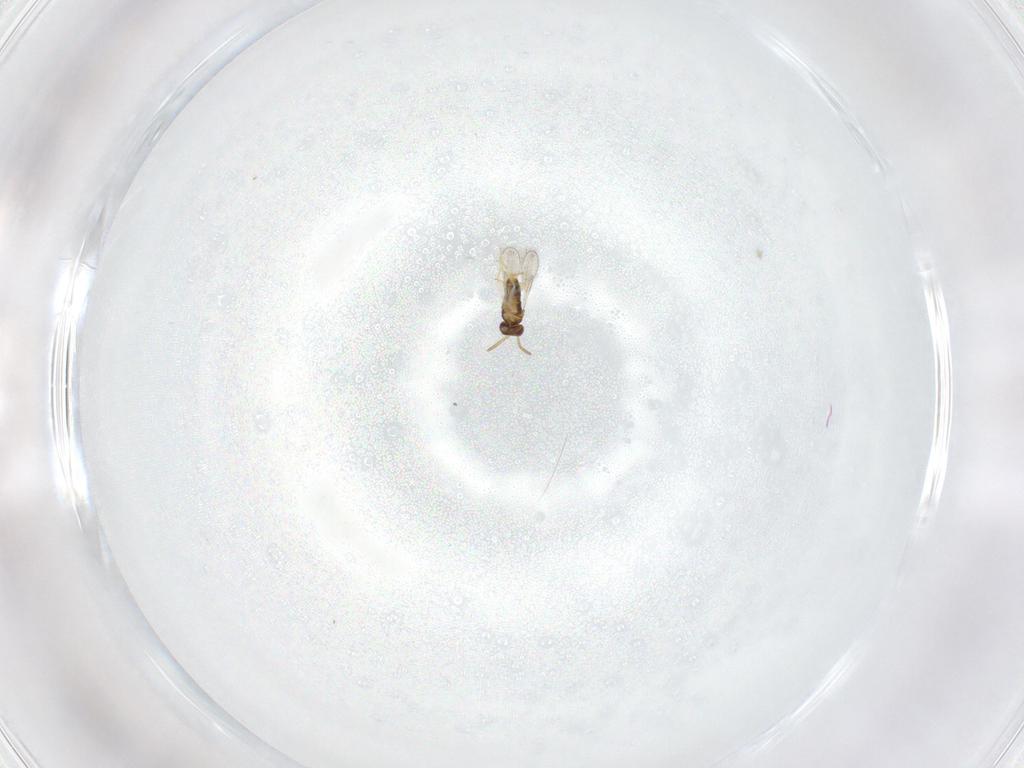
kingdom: Animalia
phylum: Arthropoda
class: Insecta
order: Hymenoptera
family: Aphelinidae
